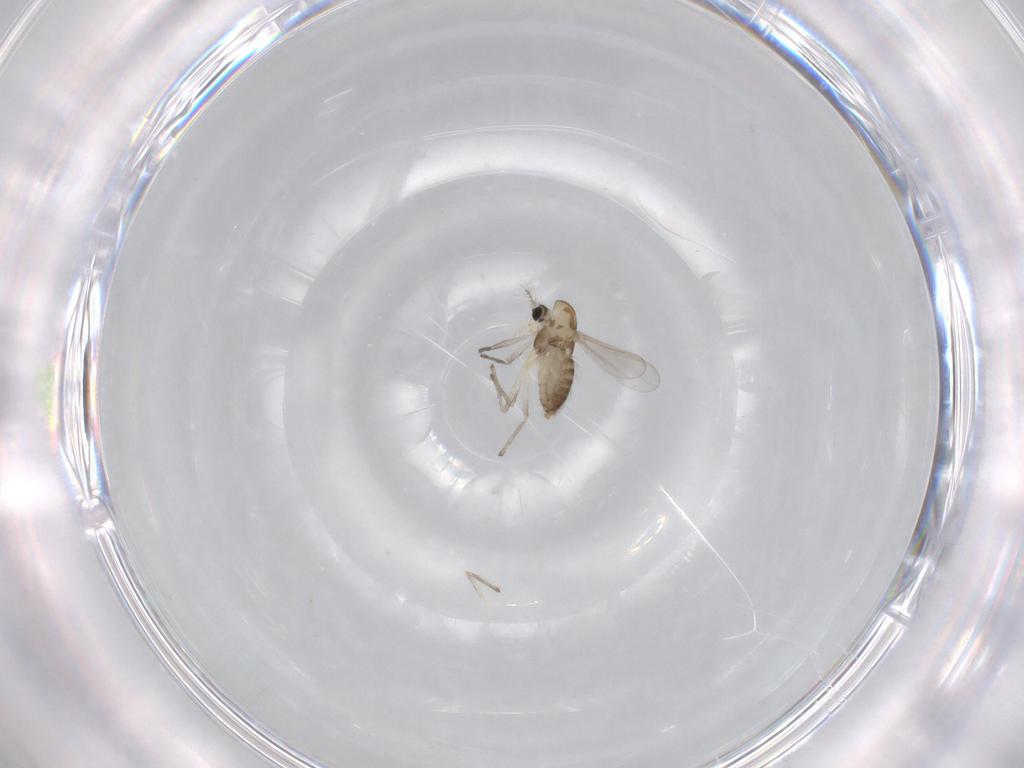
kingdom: Animalia
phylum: Arthropoda
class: Insecta
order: Diptera
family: Chironomidae
